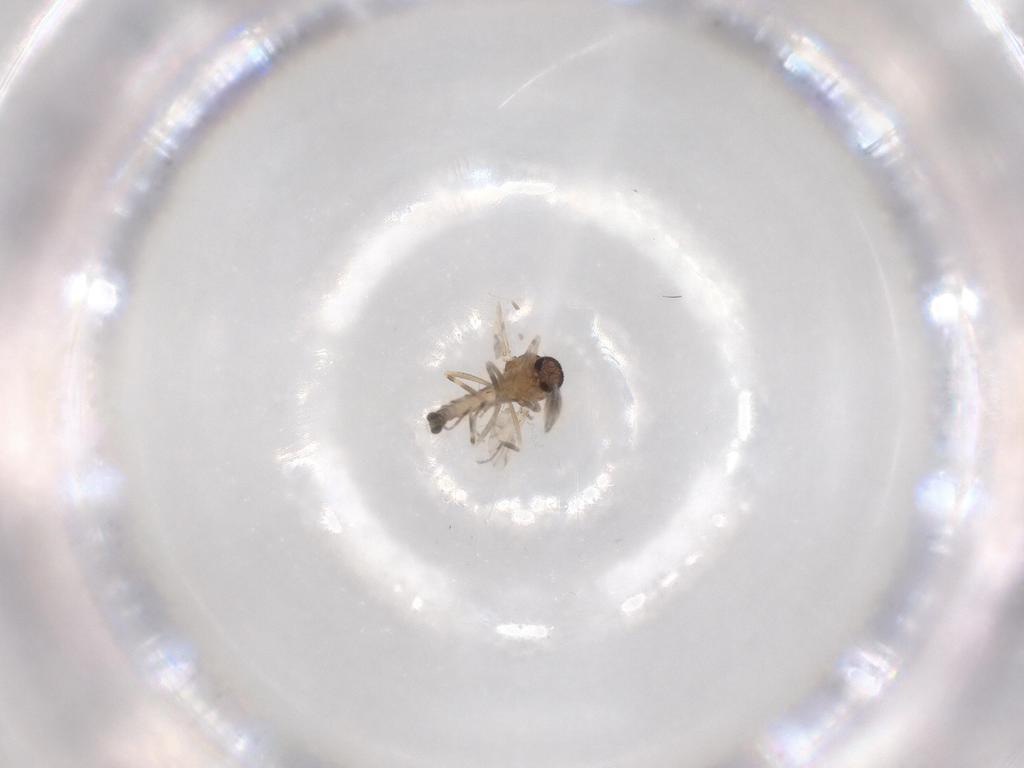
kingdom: Animalia
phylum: Arthropoda
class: Insecta
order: Diptera
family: Ceratopogonidae
